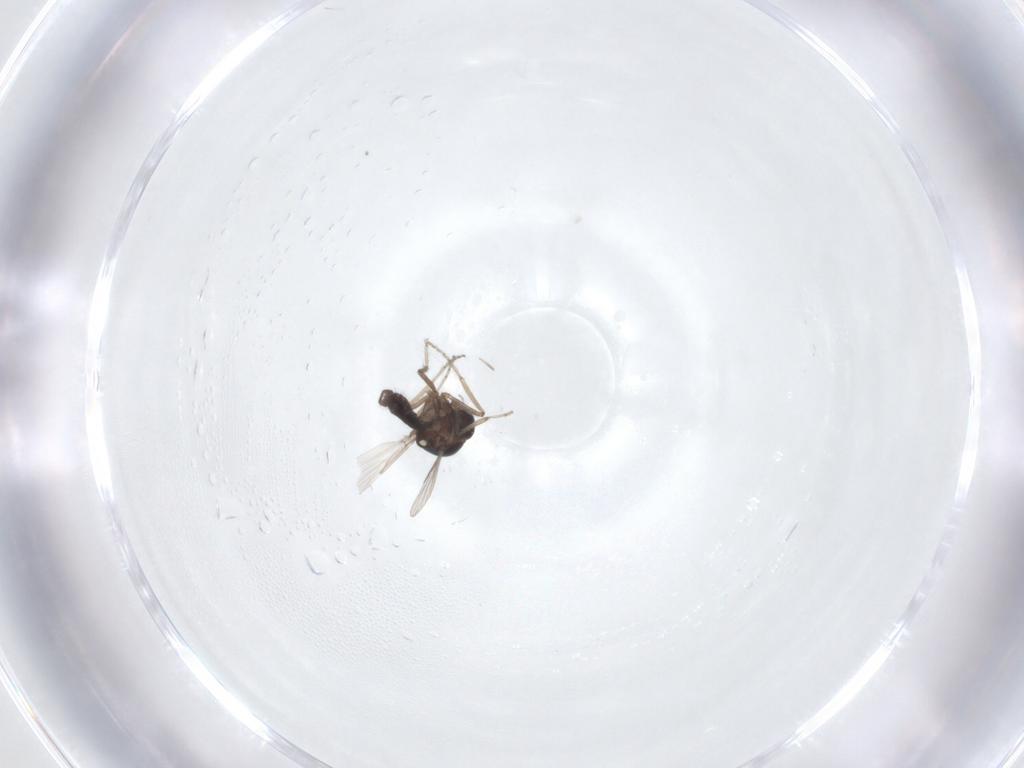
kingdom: Animalia
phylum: Arthropoda
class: Insecta
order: Diptera
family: Ceratopogonidae
